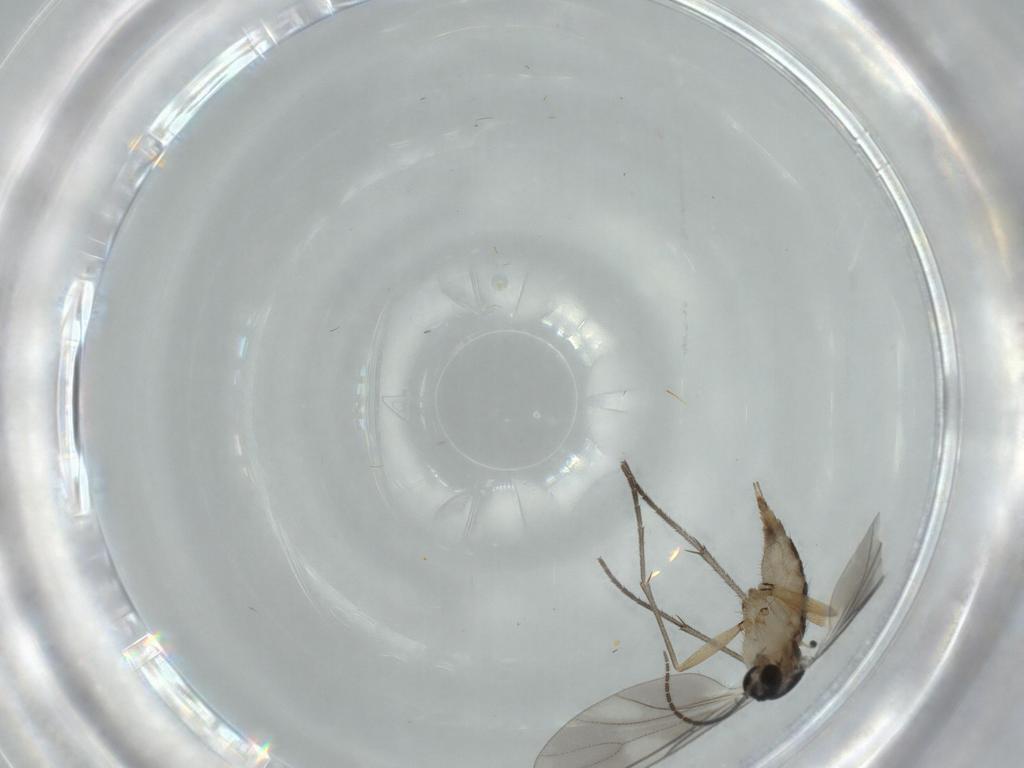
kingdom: Animalia
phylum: Arthropoda
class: Insecta
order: Diptera
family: Sciaridae
